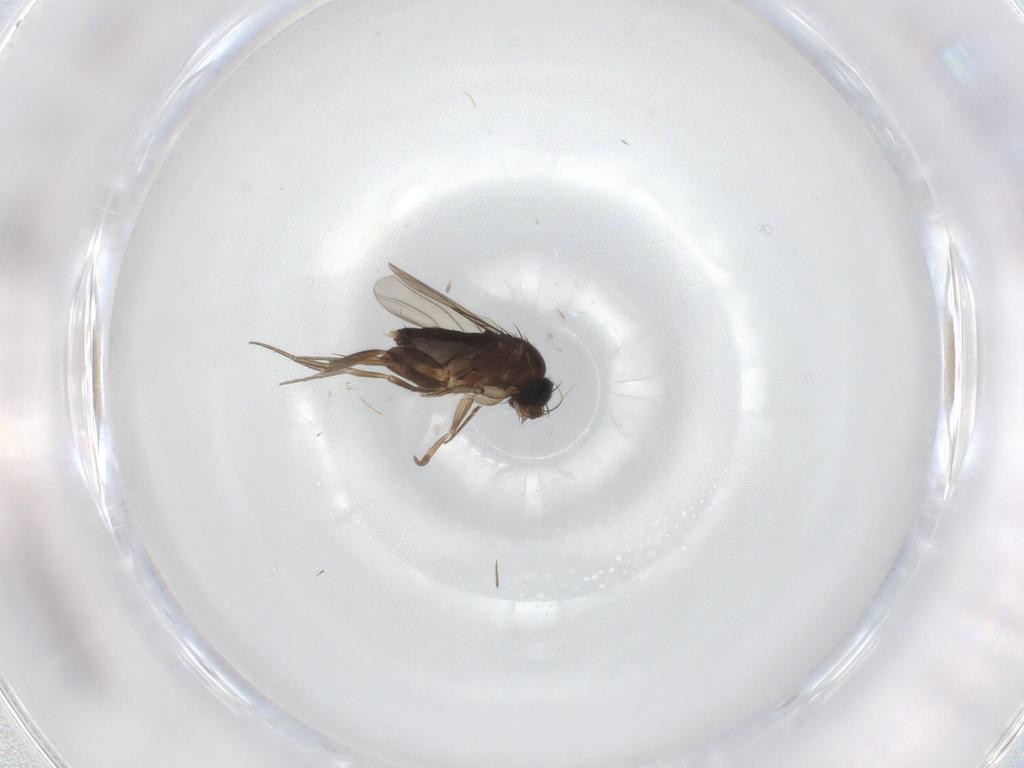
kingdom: Animalia
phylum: Arthropoda
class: Insecta
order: Diptera
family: Phoridae
